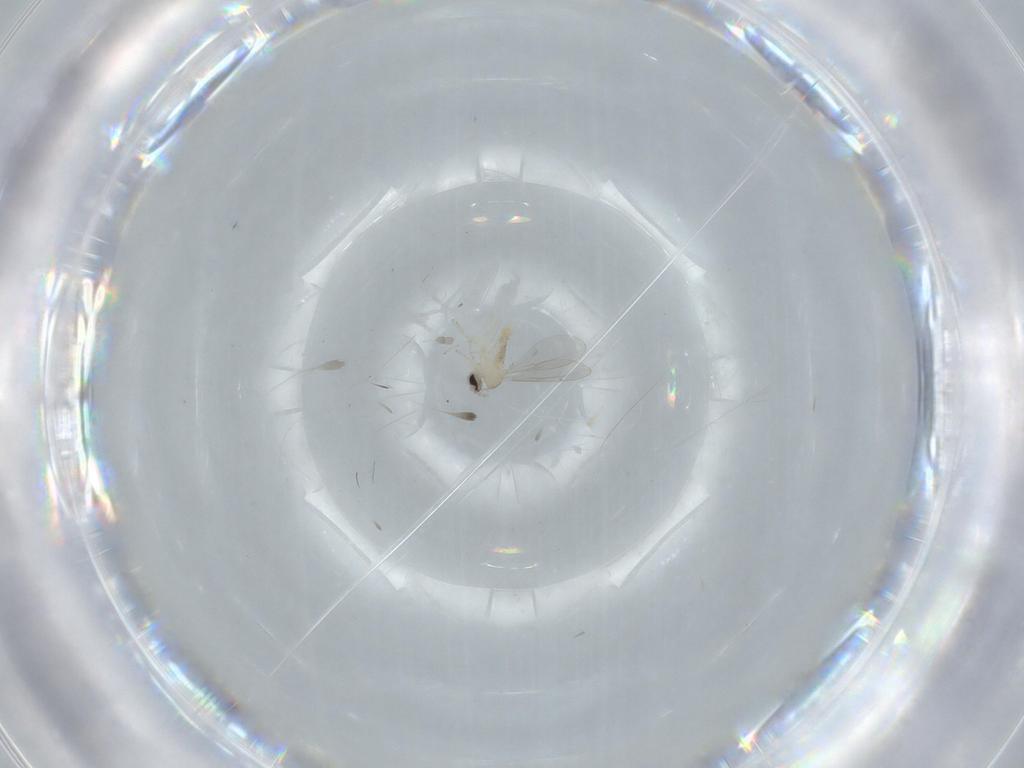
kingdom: Animalia
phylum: Arthropoda
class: Insecta
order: Diptera
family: Cecidomyiidae
